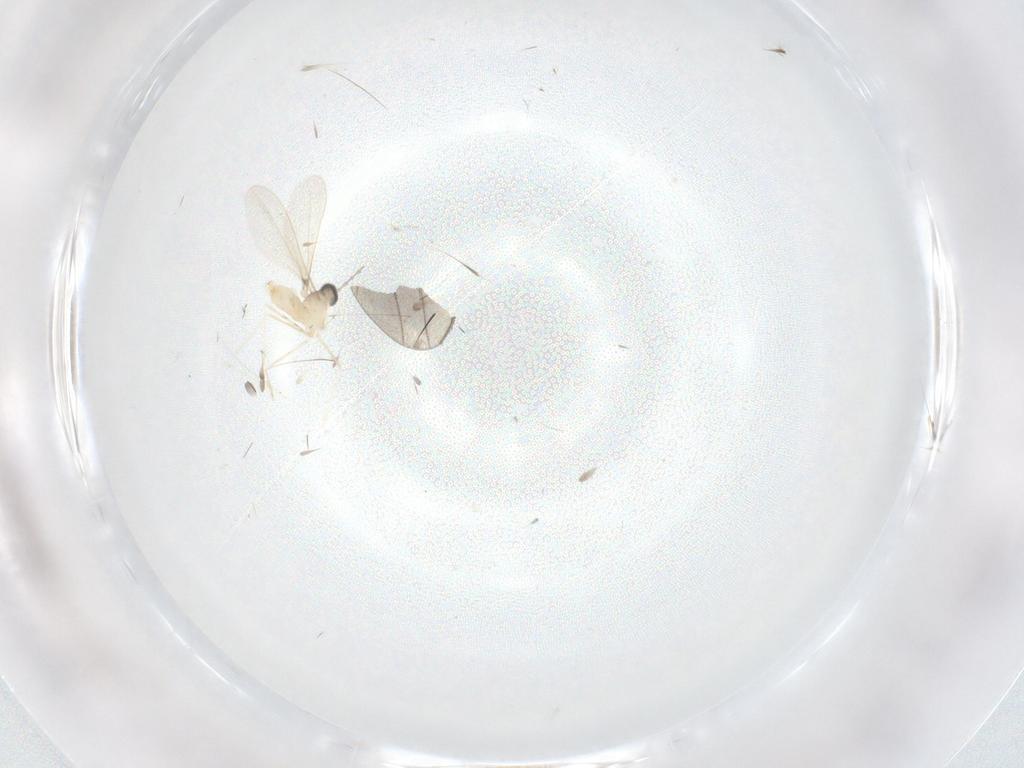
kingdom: Animalia
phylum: Arthropoda
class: Insecta
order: Diptera
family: Cecidomyiidae
